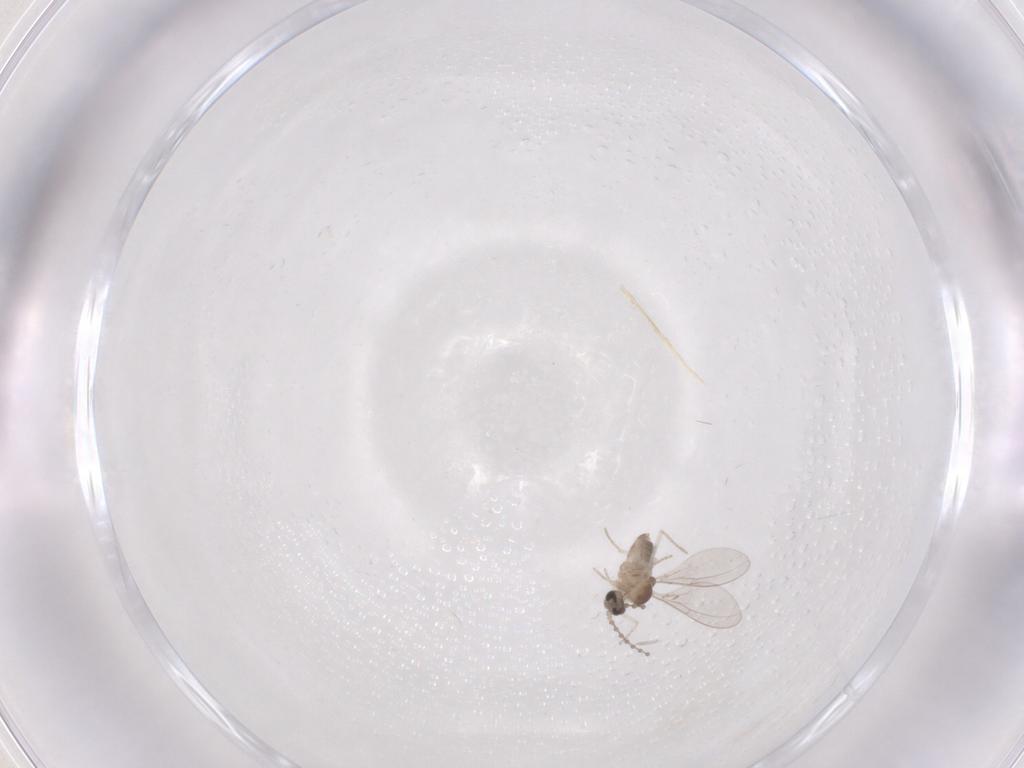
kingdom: Animalia
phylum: Arthropoda
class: Insecta
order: Diptera
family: Cecidomyiidae
